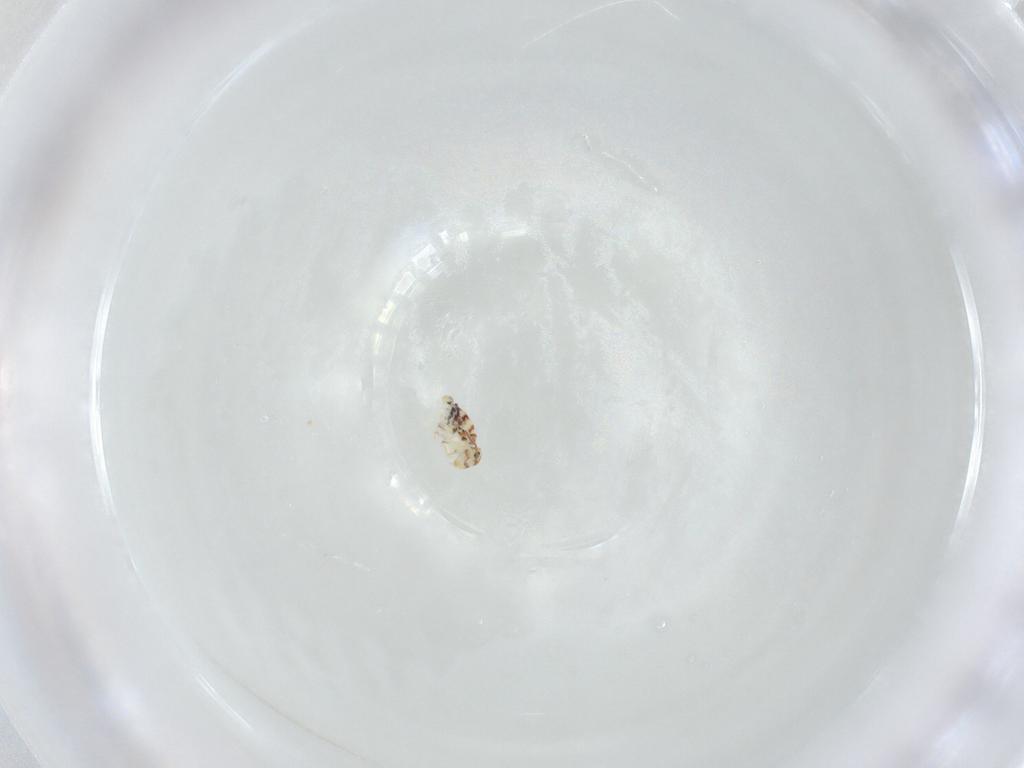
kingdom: Animalia
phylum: Arthropoda
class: Collembola
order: Symphypleona
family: Bourletiellidae
